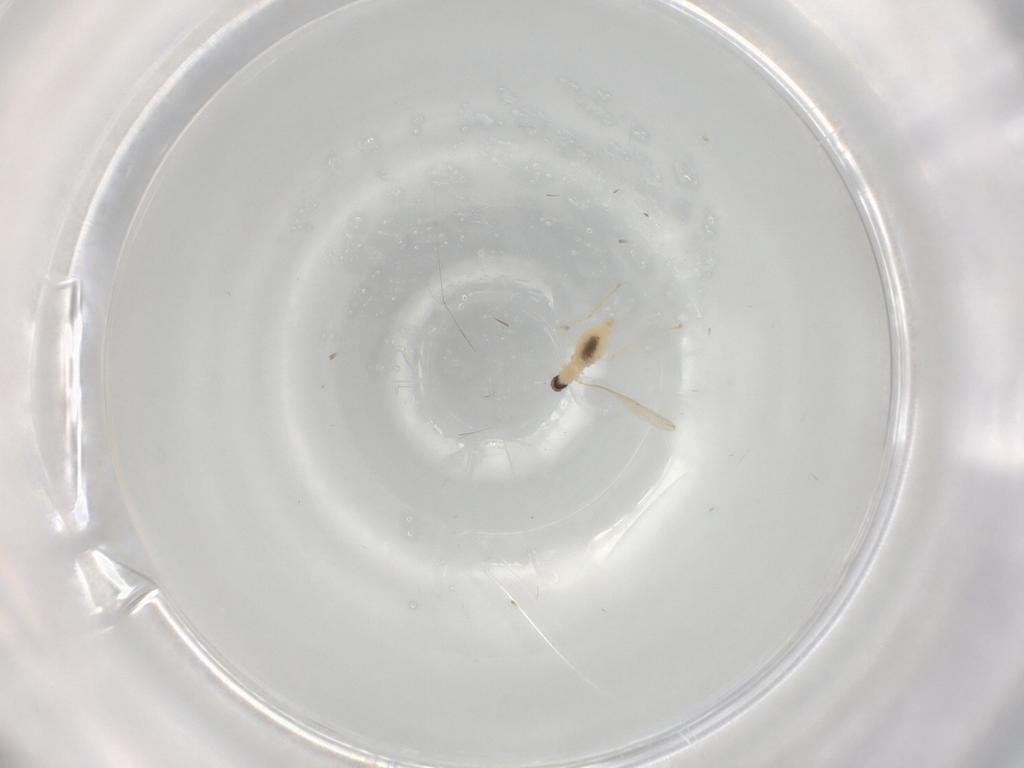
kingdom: Animalia
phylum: Arthropoda
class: Insecta
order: Diptera
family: Cecidomyiidae
